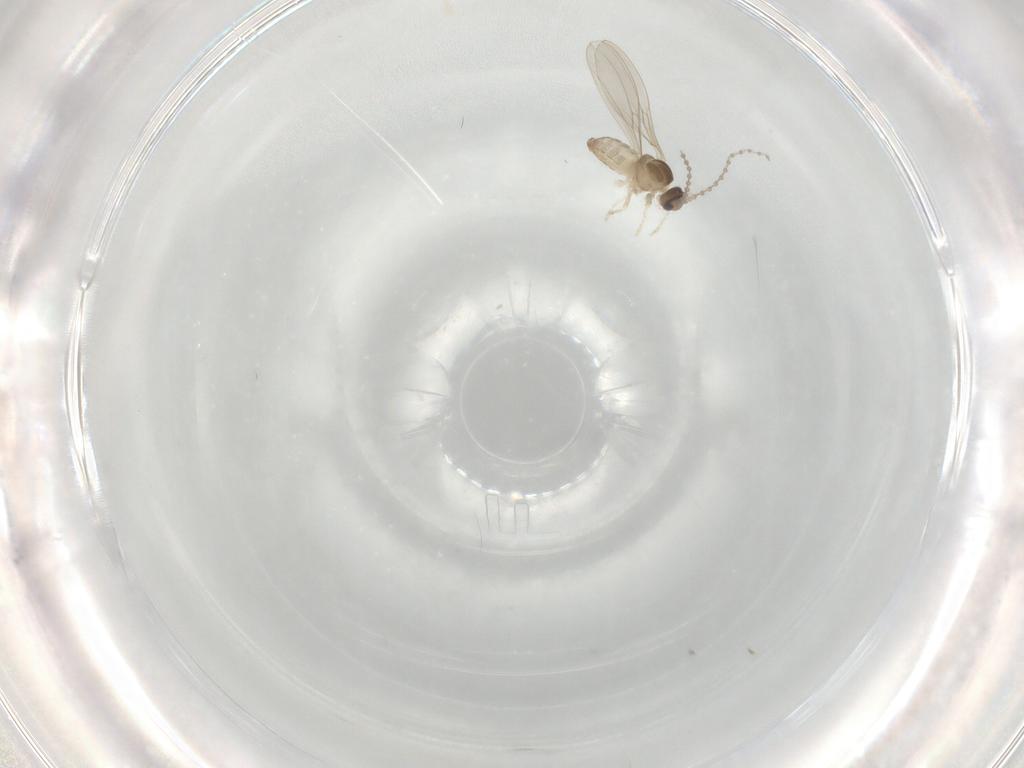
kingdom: Animalia
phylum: Arthropoda
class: Insecta
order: Diptera
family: Cecidomyiidae
